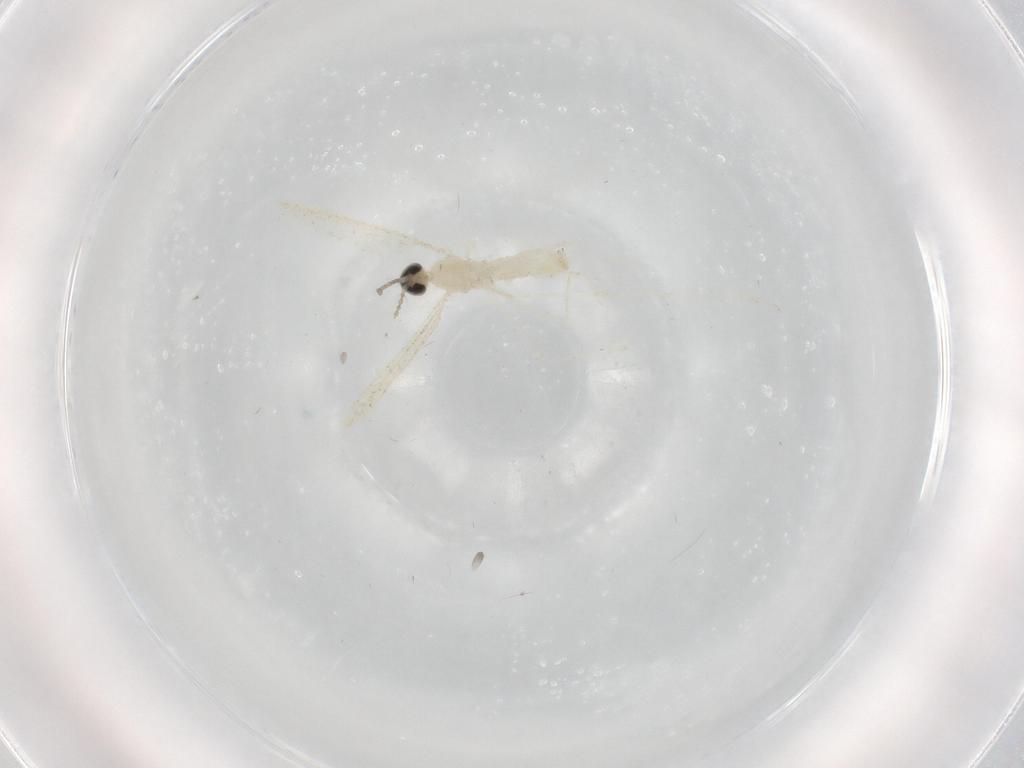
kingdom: Animalia
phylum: Arthropoda
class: Insecta
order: Diptera
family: Cecidomyiidae
